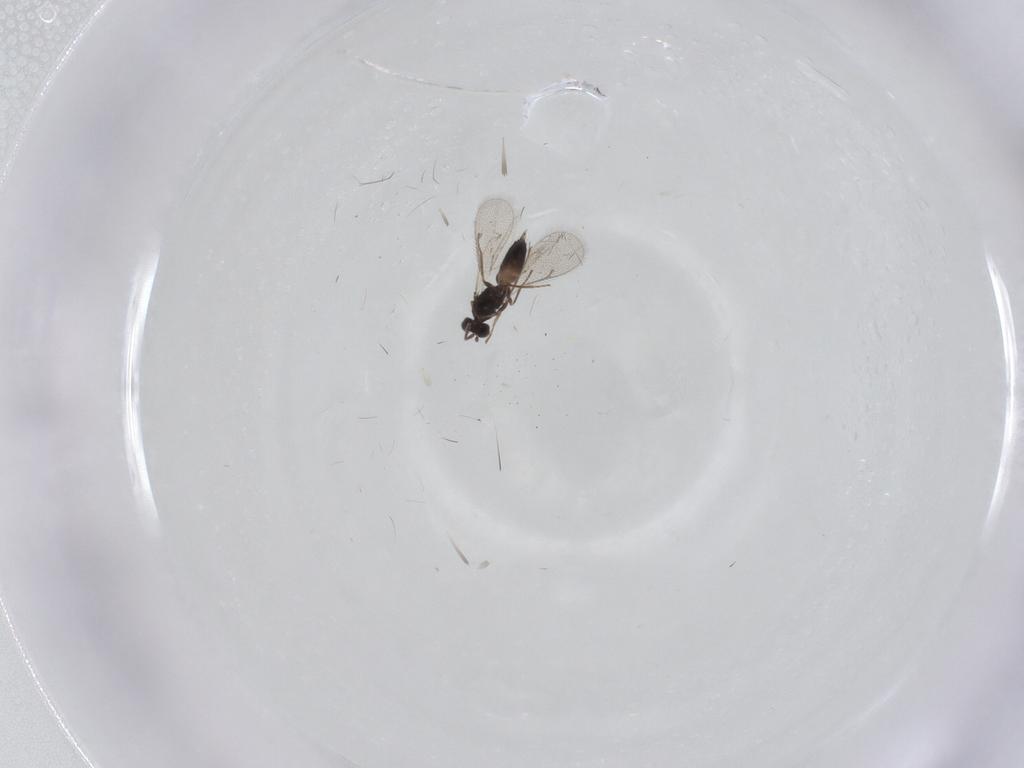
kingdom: Animalia
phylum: Arthropoda
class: Insecta
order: Hymenoptera
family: Eulophidae
